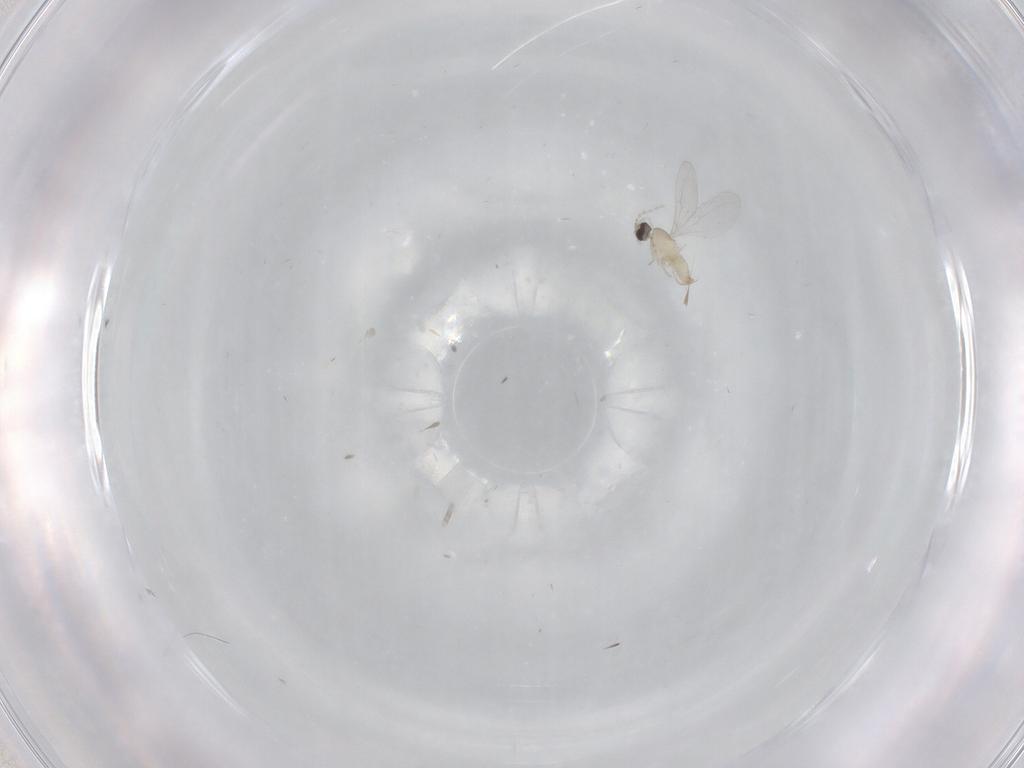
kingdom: Animalia
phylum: Arthropoda
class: Insecta
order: Diptera
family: Cecidomyiidae
